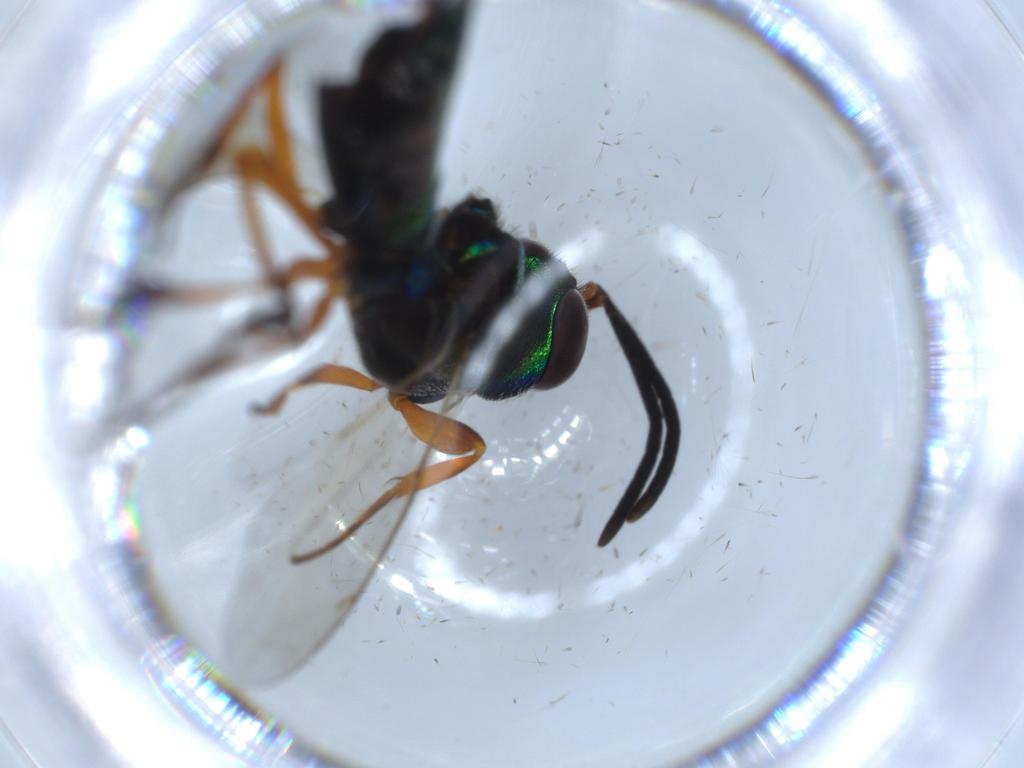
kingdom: Animalia
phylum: Arthropoda
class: Insecta
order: Hymenoptera
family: Eupelmidae
